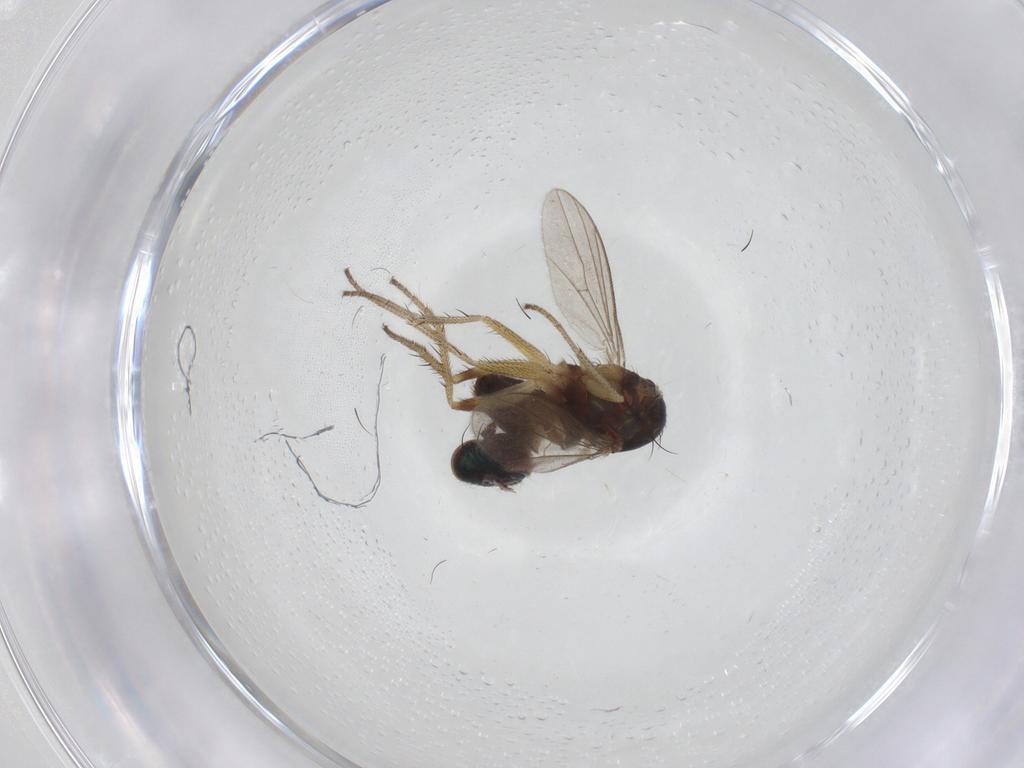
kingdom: Animalia
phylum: Arthropoda
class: Insecta
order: Diptera
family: Dolichopodidae
